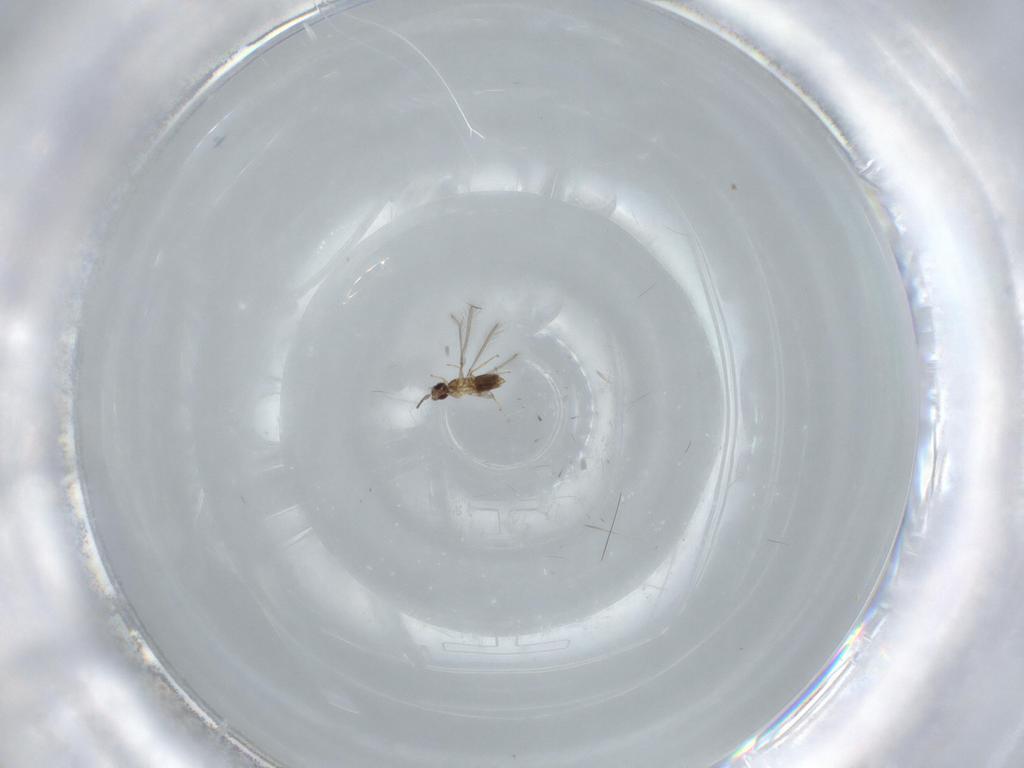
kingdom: Animalia
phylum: Arthropoda
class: Insecta
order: Hymenoptera
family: Mymaridae
